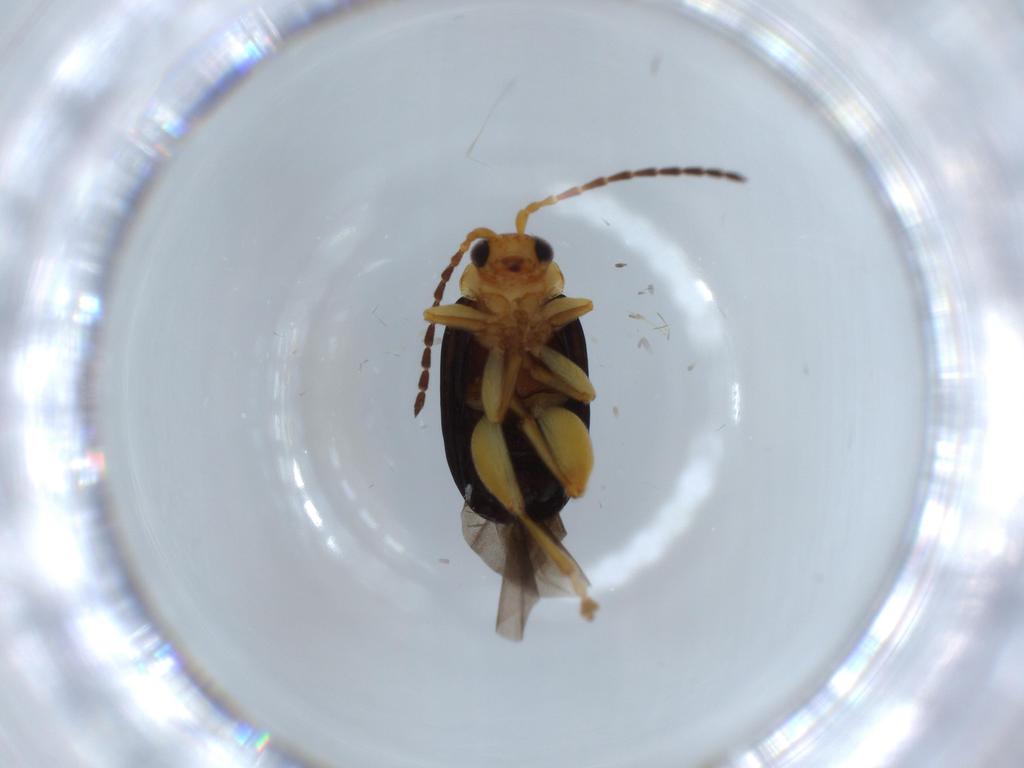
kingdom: Animalia
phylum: Arthropoda
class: Insecta
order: Coleoptera
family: Chrysomelidae
